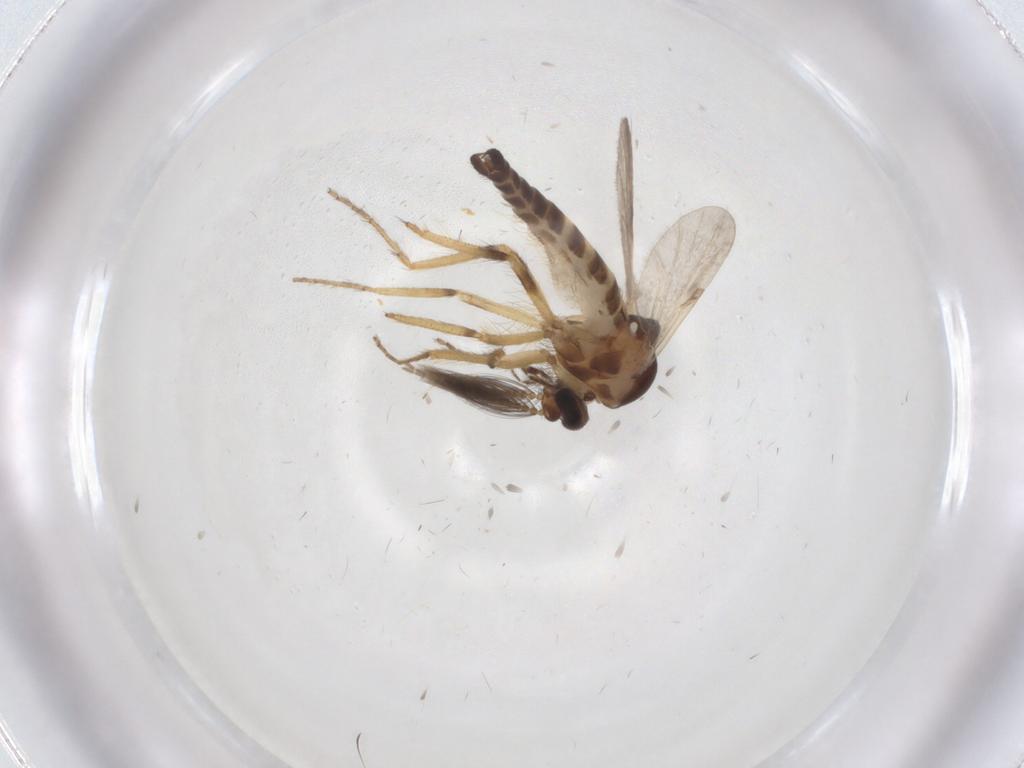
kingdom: Animalia
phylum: Arthropoda
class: Insecta
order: Diptera
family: Ceratopogonidae
